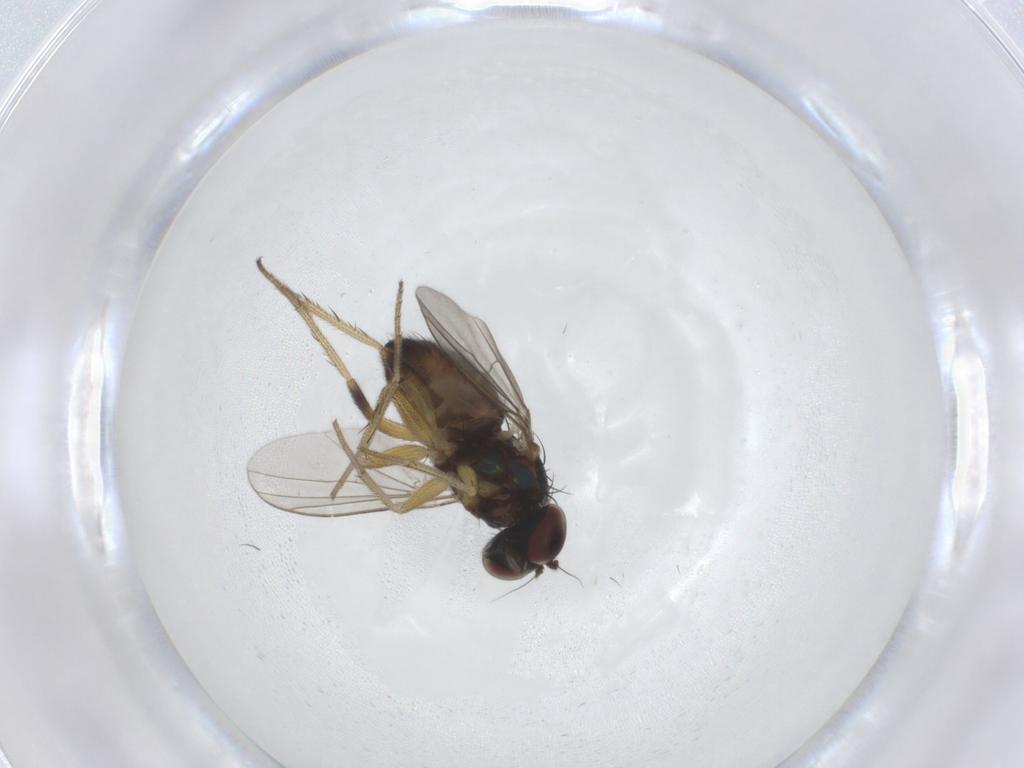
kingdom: Animalia
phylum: Arthropoda
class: Insecta
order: Diptera
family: Dolichopodidae
